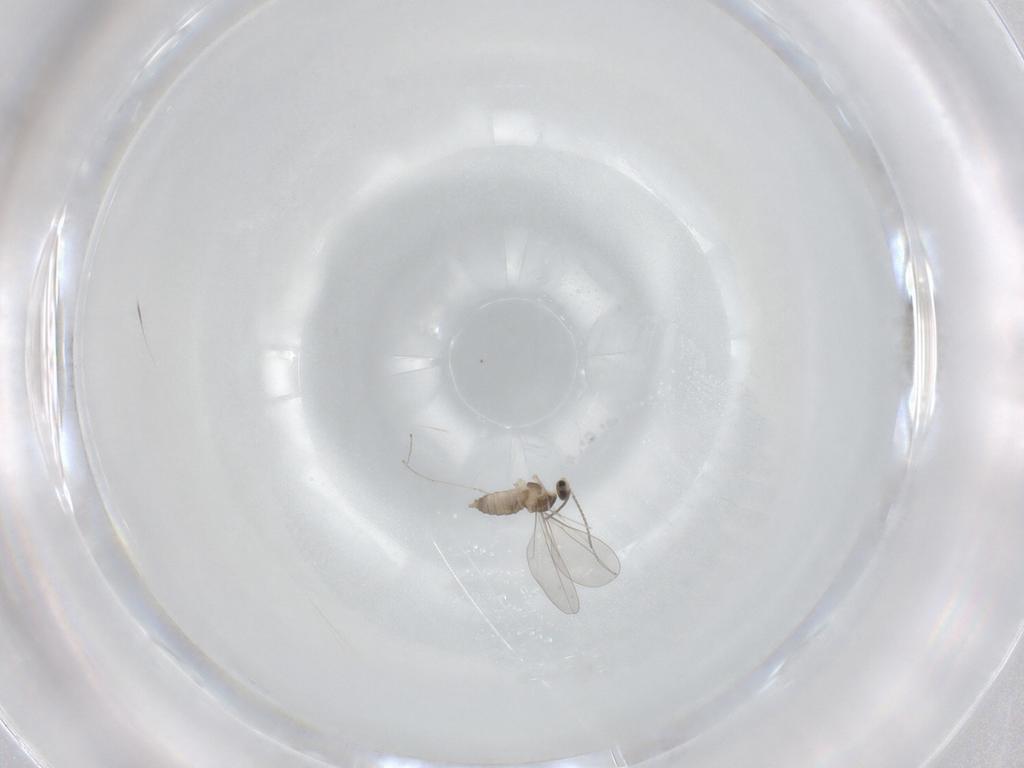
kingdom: Animalia
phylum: Arthropoda
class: Insecta
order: Diptera
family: Cecidomyiidae
